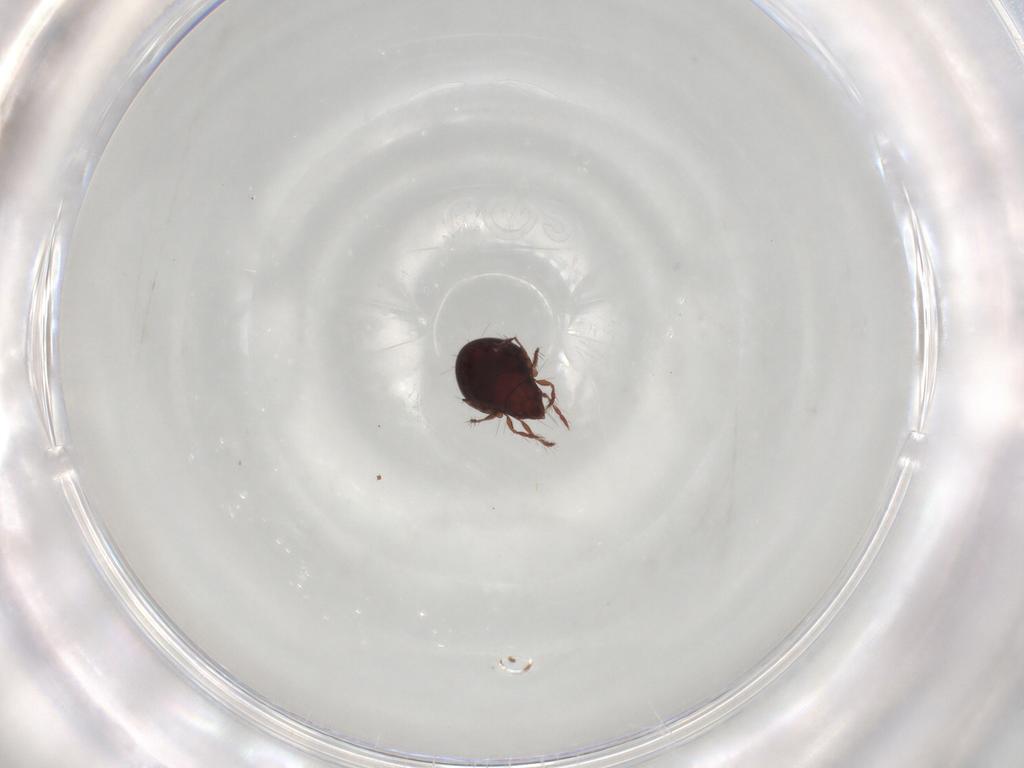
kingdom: Animalia
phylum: Arthropoda
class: Arachnida
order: Sarcoptiformes
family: Ceratoppiidae
